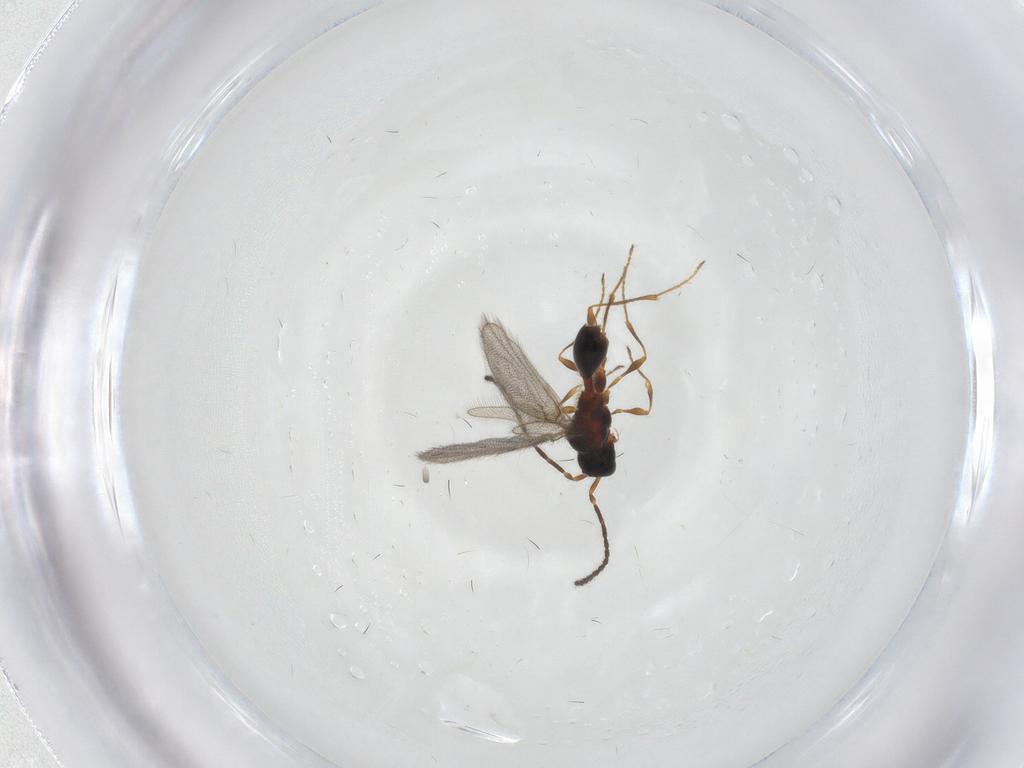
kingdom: Animalia
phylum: Arthropoda
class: Insecta
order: Hymenoptera
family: Diapriidae
